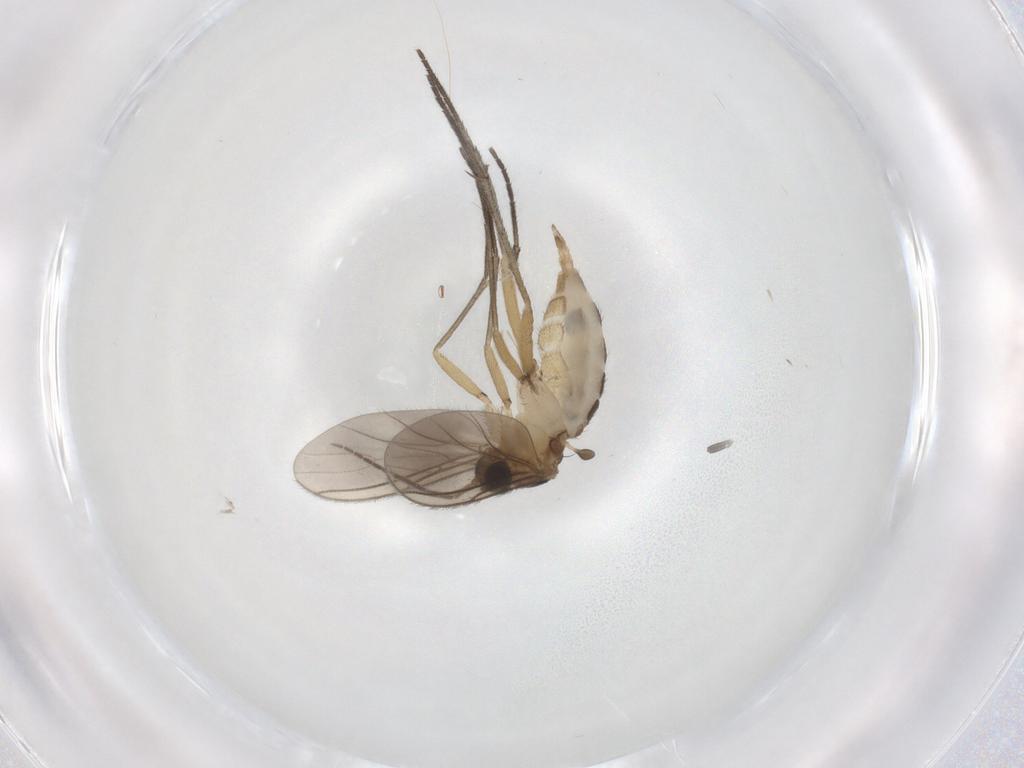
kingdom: Animalia
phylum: Arthropoda
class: Insecta
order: Diptera
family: Sciaridae
